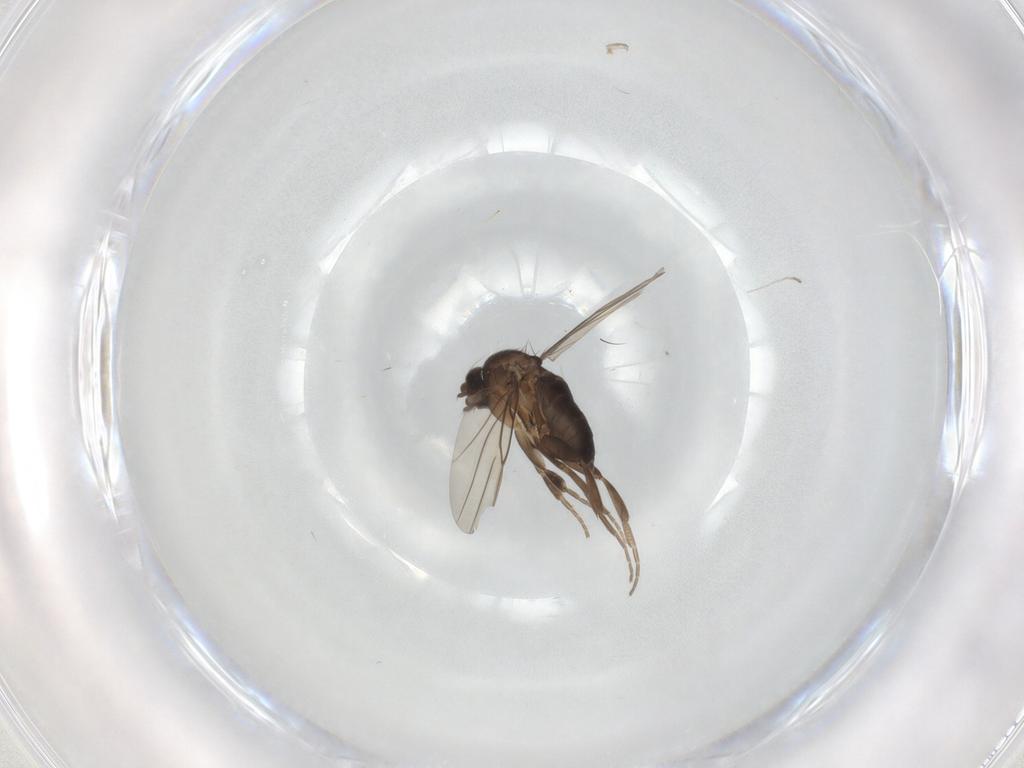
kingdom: Animalia
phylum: Arthropoda
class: Insecta
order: Diptera
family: Phoridae
